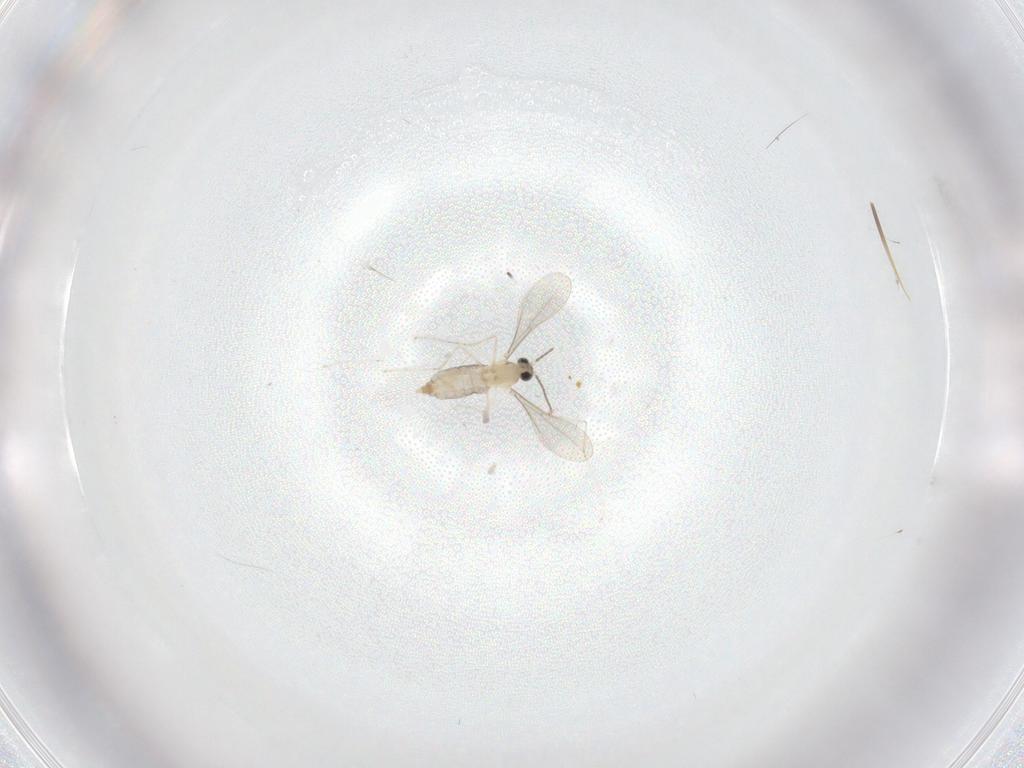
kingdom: Animalia
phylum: Arthropoda
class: Insecta
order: Diptera
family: Cecidomyiidae
